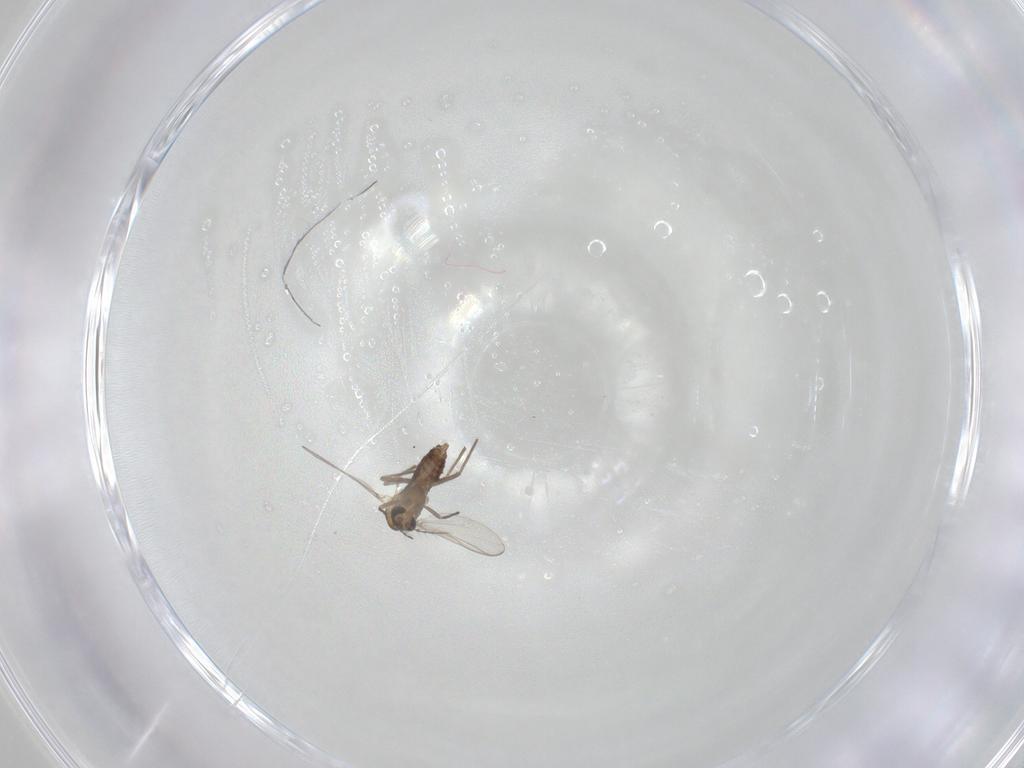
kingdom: Animalia
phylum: Arthropoda
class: Insecta
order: Diptera
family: Chironomidae
